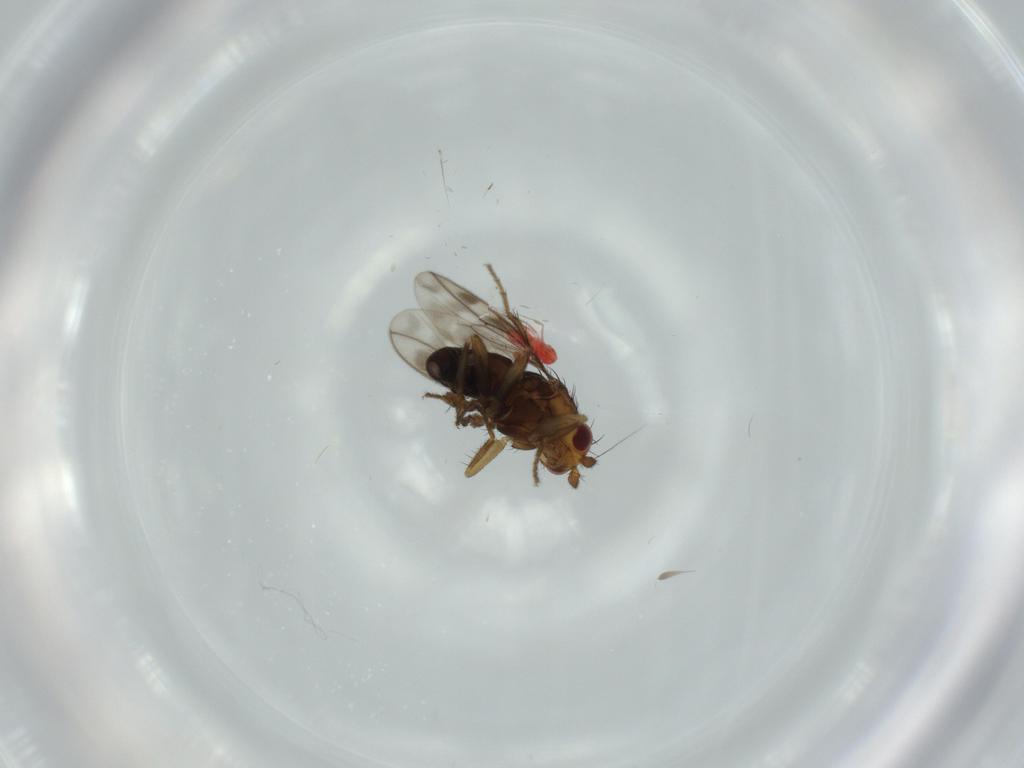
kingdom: Animalia
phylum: Arthropoda
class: Insecta
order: Diptera
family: Sphaeroceridae
